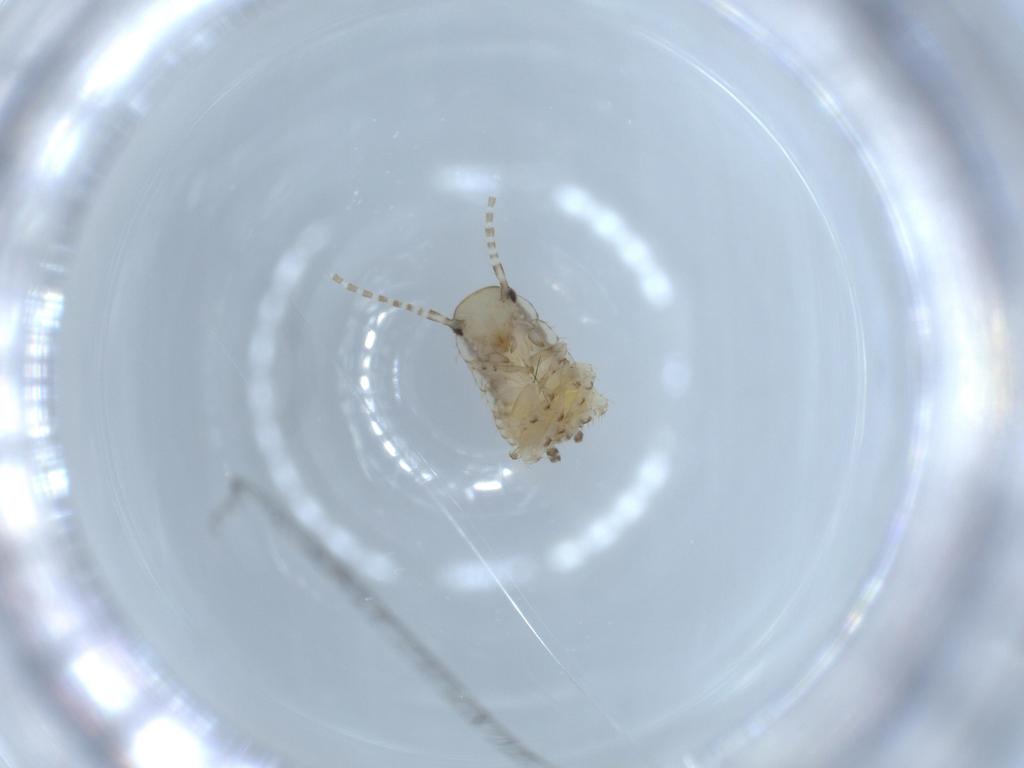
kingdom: Animalia
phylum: Arthropoda
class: Insecta
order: Blattodea
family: Ectobiidae
